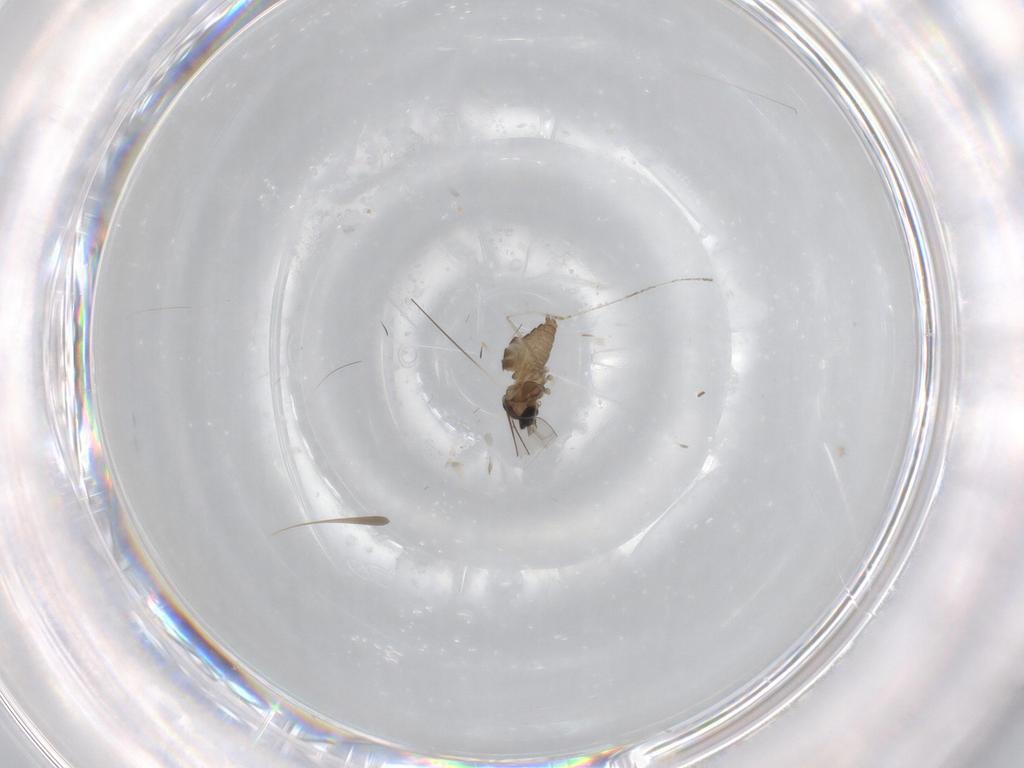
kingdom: Animalia
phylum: Arthropoda
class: Insecta
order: Diptera
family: Cecidomyiidae
